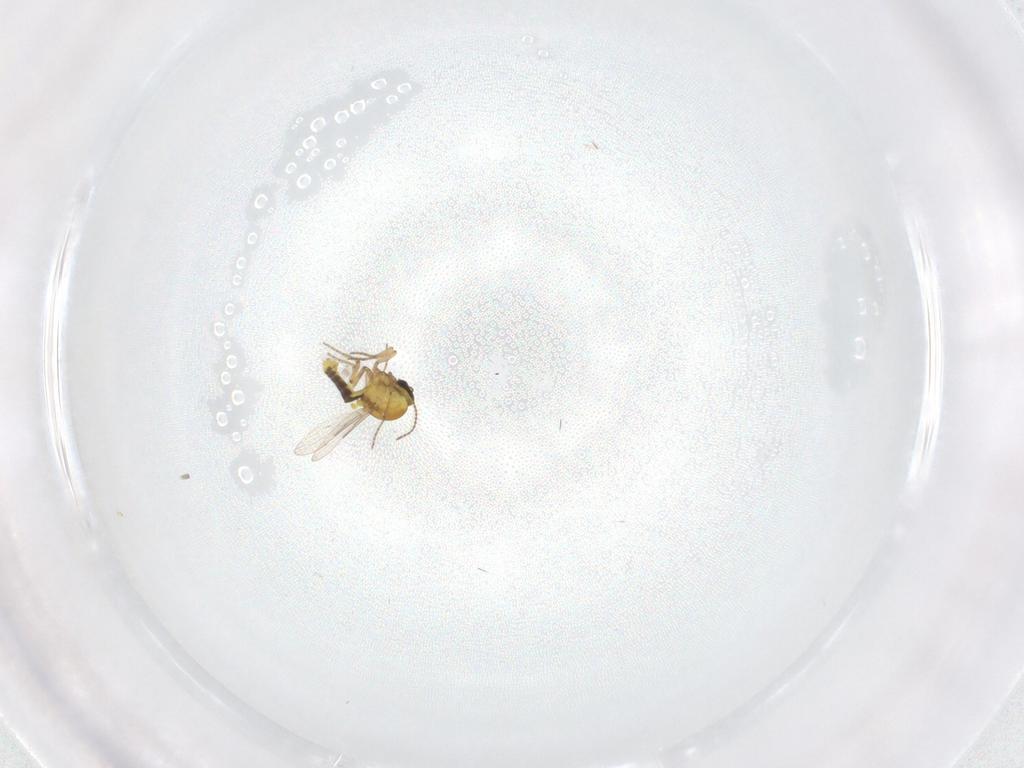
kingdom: Animalia
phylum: Arthropoda
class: Insecta
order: Diptera
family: Ceratopogonidae
